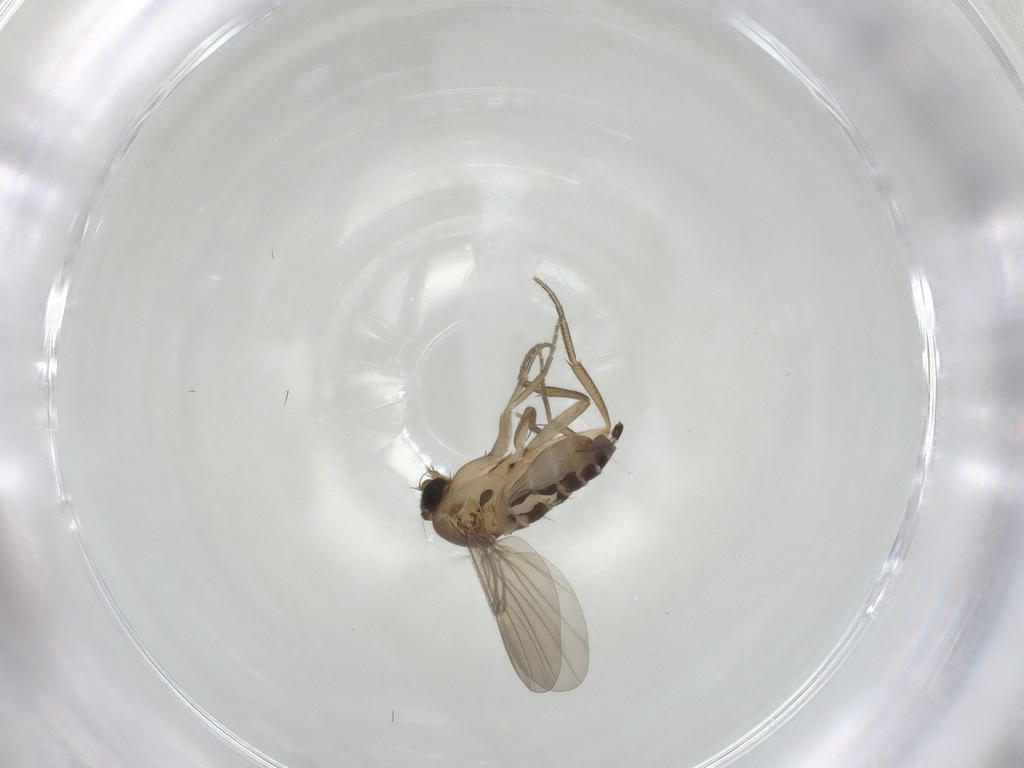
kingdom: Animalia
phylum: Arthropoda
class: Insecta
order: Diptera
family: Phoridae
